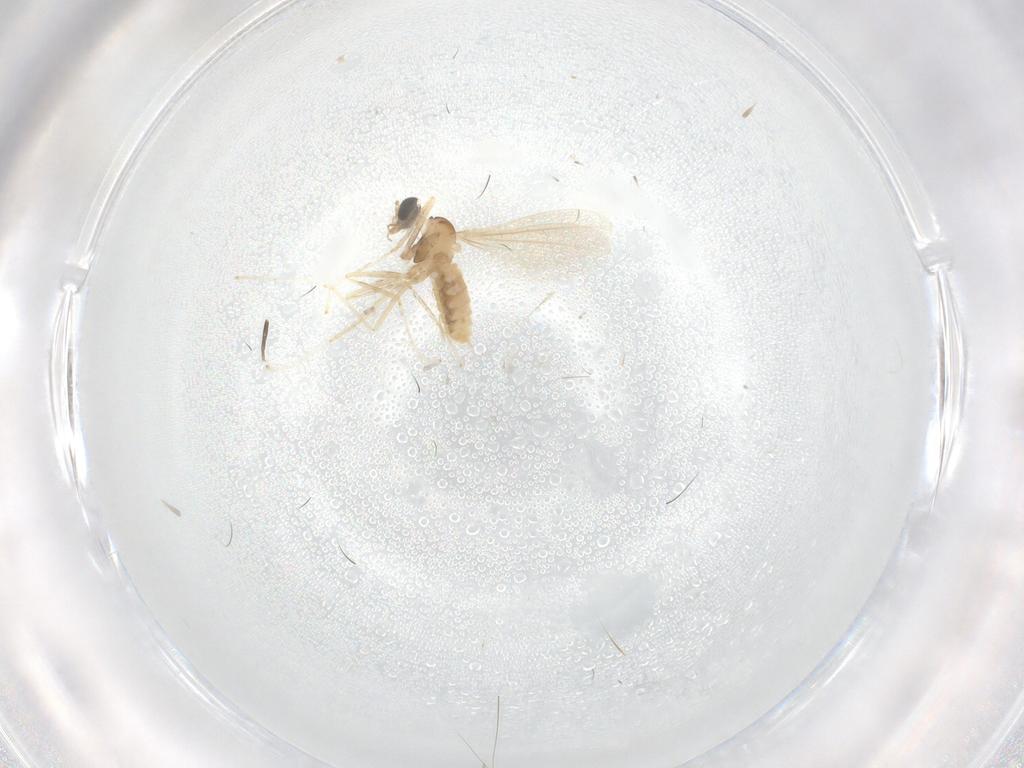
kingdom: Animalia
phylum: Arthropoda
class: Insecta
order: Diptera
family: Cecidomyiidae
